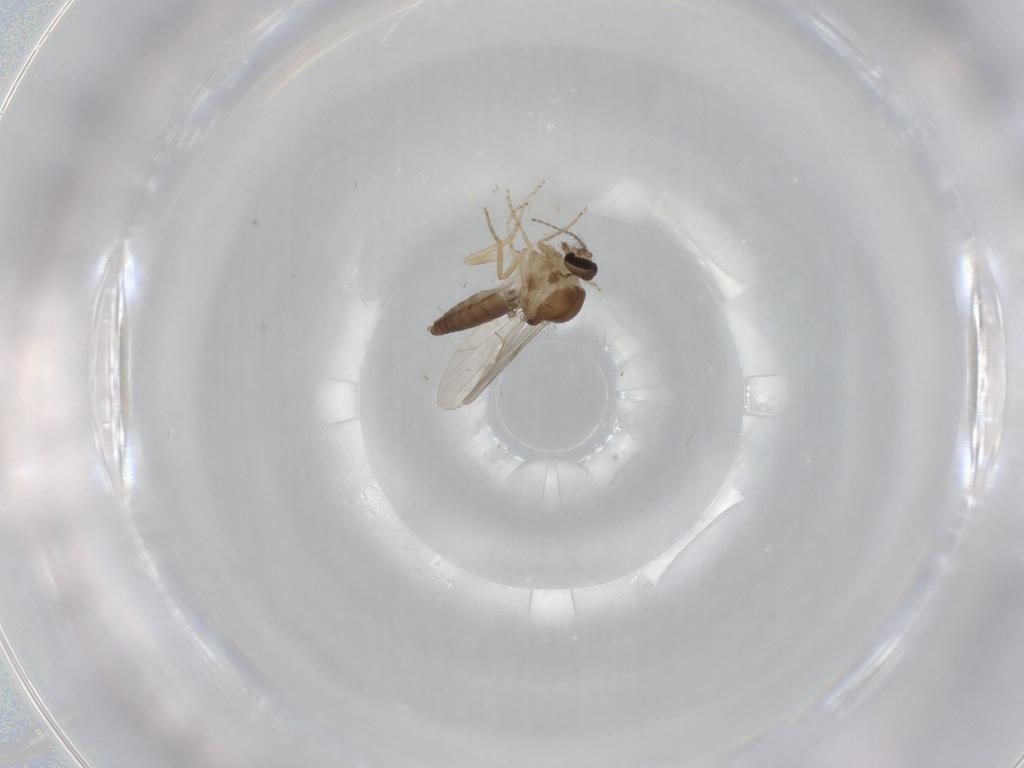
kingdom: Animalia
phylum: Arthropoda
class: Insecta
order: Diptera
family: Ceratopogonidae
